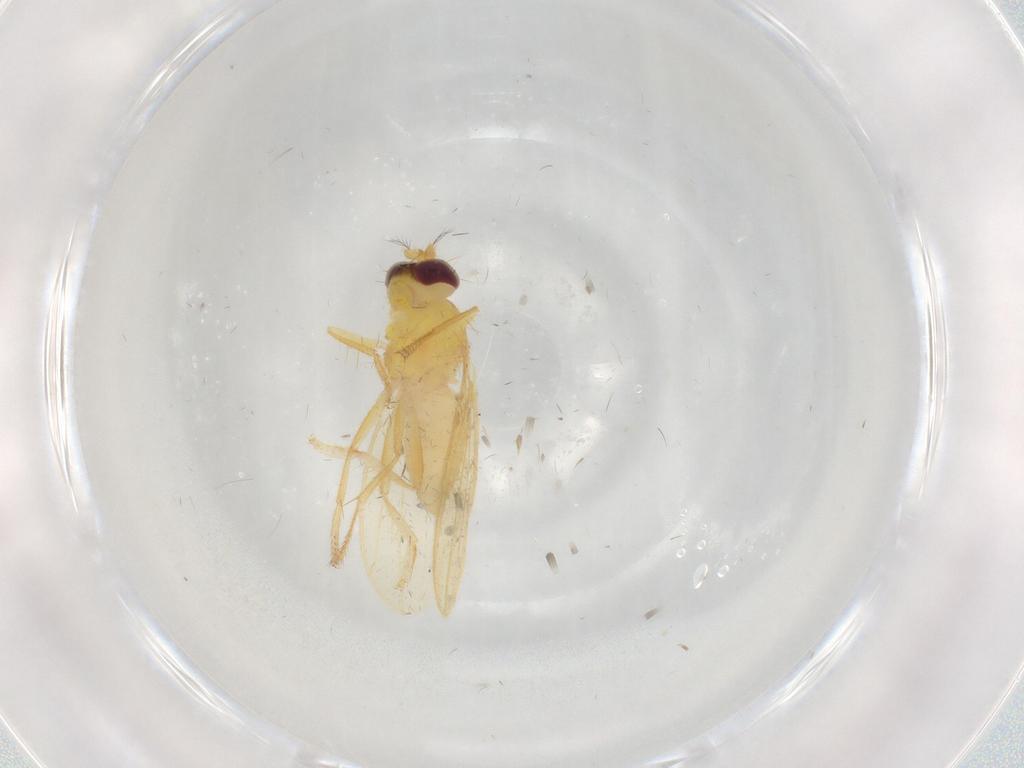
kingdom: Animalia
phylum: Arthropoda
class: Insecta
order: Diptera
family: Periscelididae
